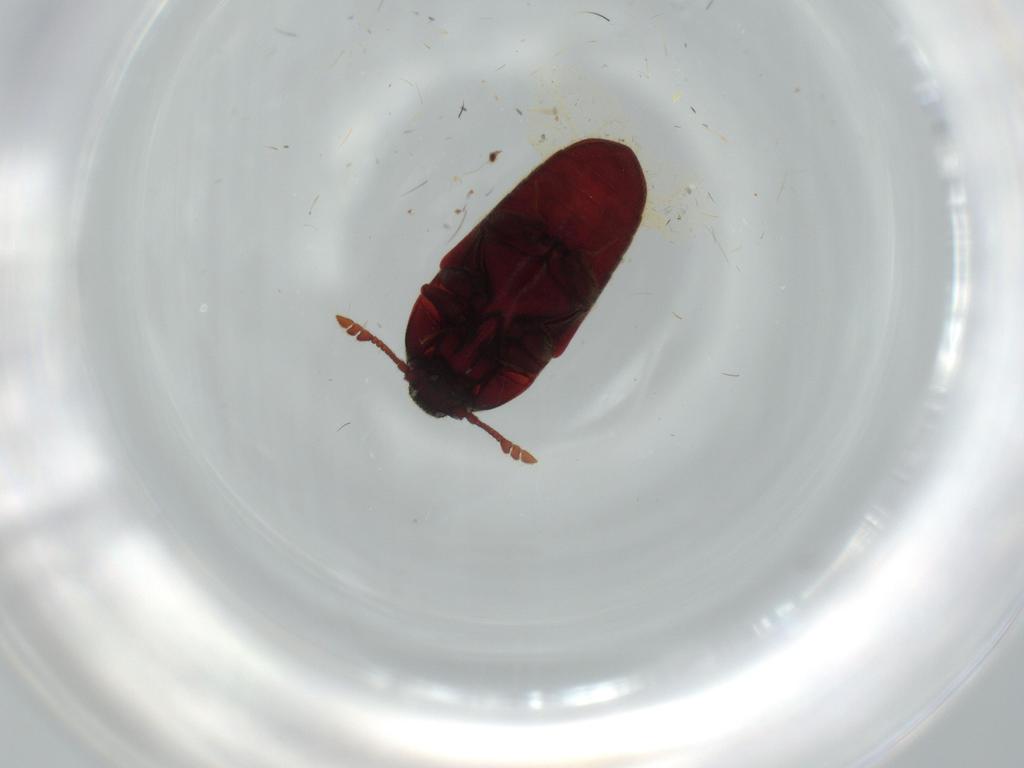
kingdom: Animalia
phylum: Arthropoda
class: Insecta
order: Coleoptera
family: Throscidae
